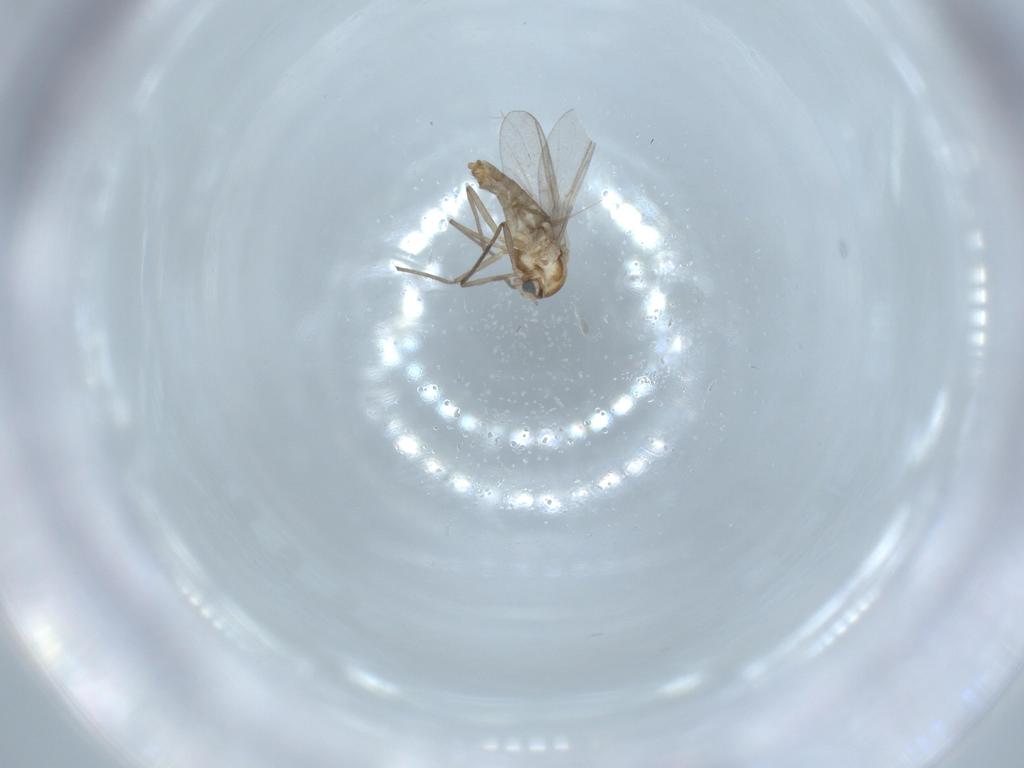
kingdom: Animalia
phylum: Arthropoda
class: Insecta
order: Diptera
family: Chironomidae
